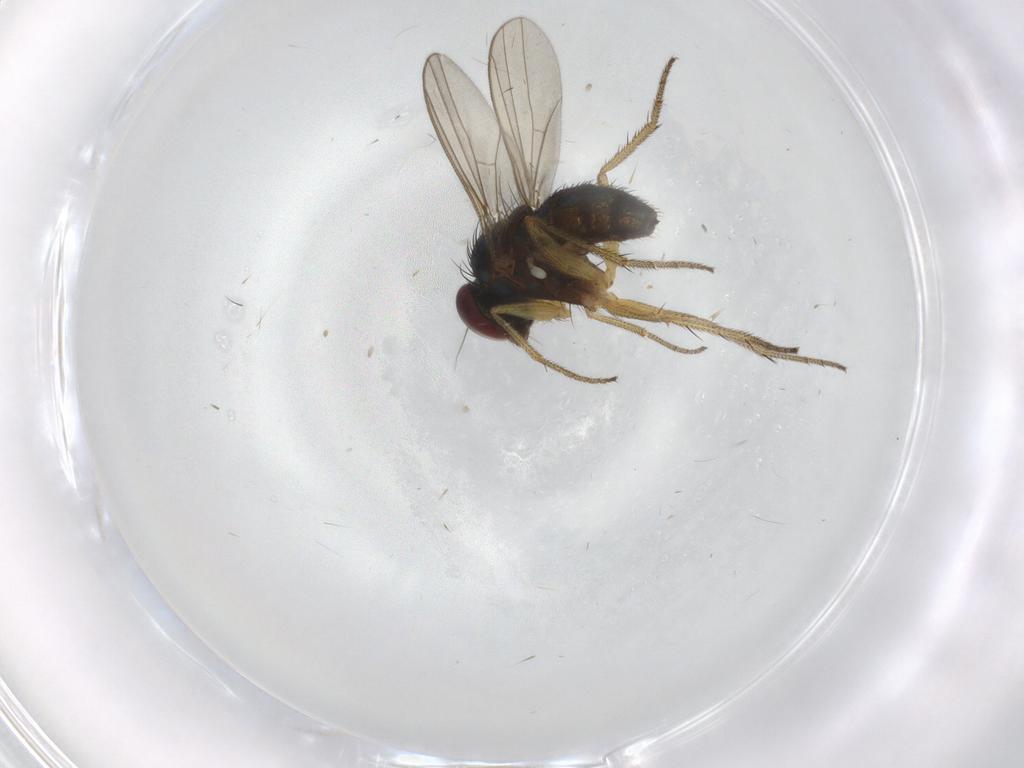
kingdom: Animalia
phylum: Arthropoda
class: Insecta
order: Diptera
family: Dolichopodidae
